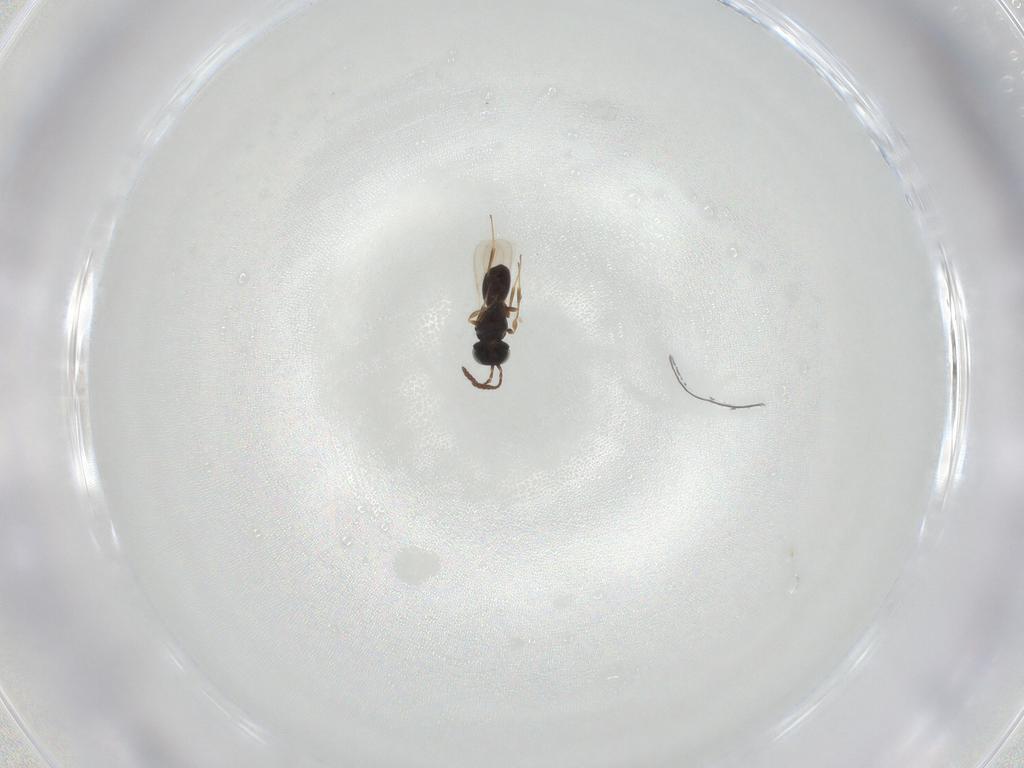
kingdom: Animalia
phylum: Arthropoda
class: Insecta
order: Hymenoptera
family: Scelionidae
